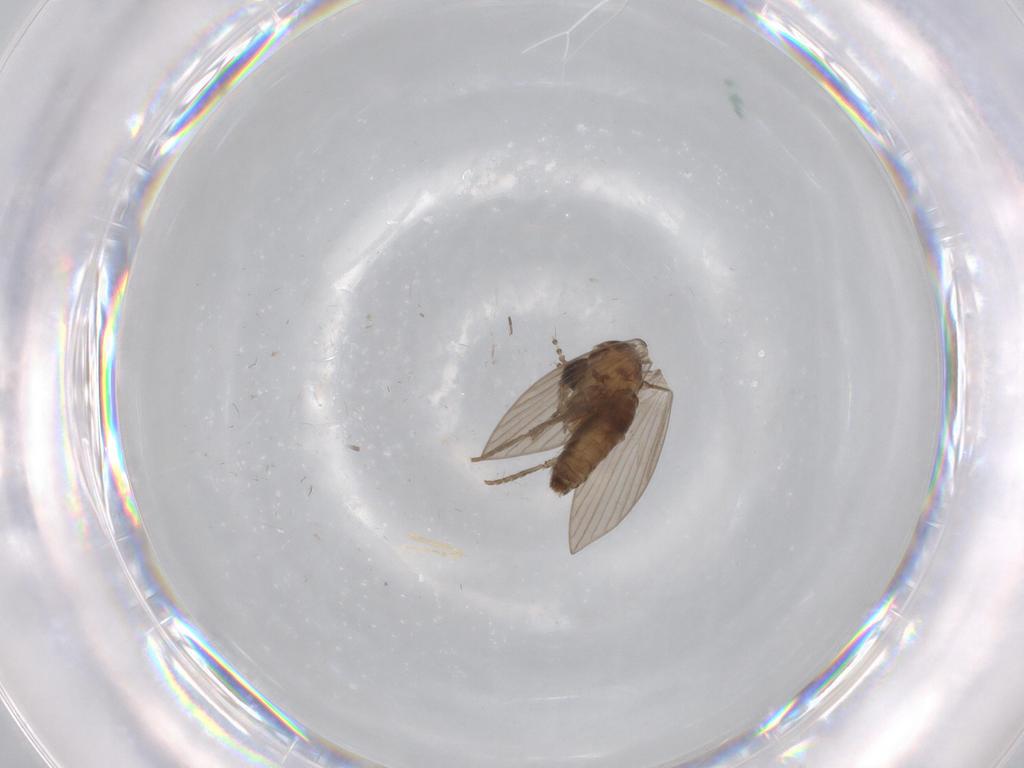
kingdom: Animalia
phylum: Arthropoda
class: Insecta
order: Diptera
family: Psychodidae
